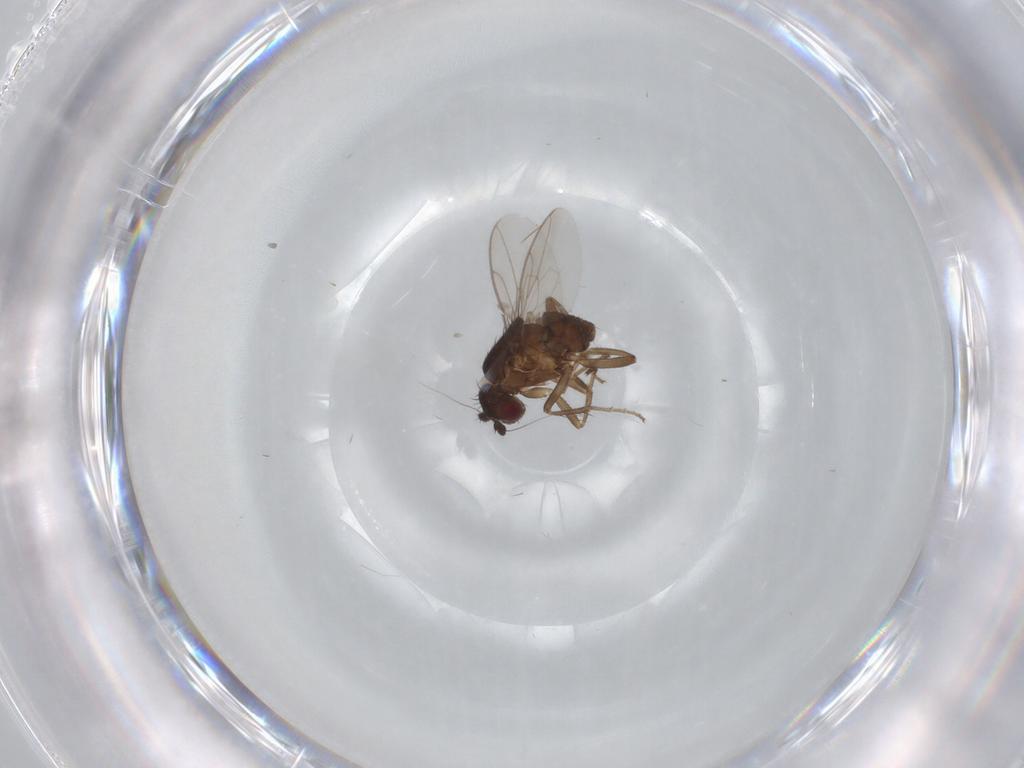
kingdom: Animalia
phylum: Arthropoda
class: Insecta
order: Diptera
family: Sphaeroceridae
